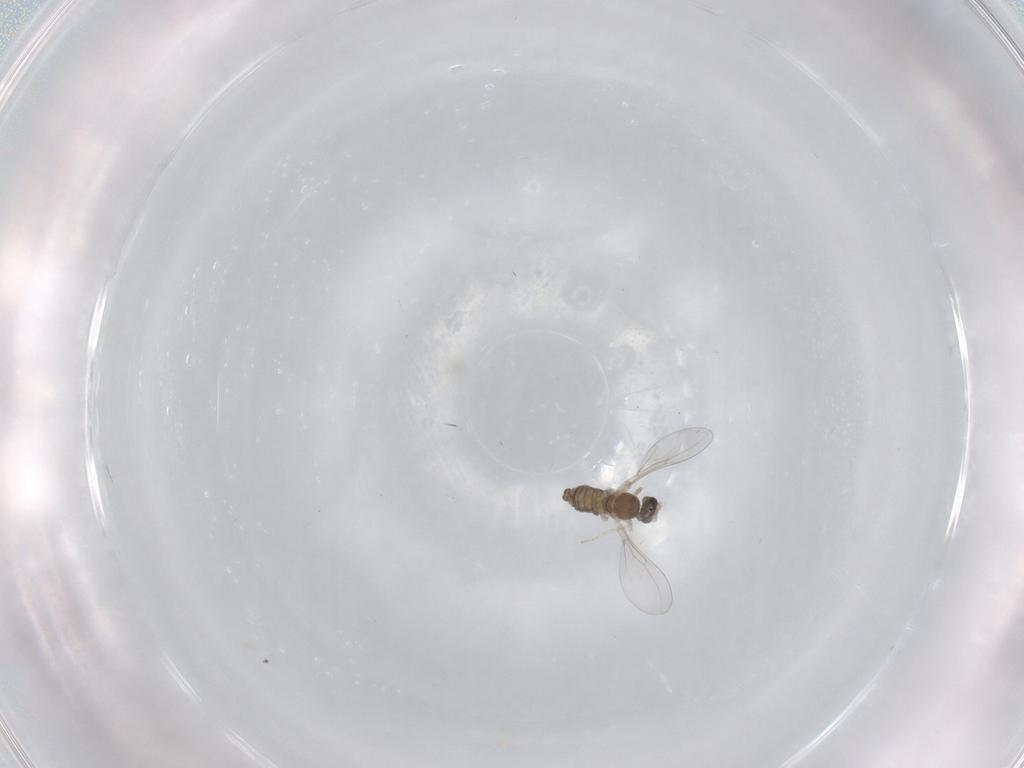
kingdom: Animalia
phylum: Arthropoda
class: Insecta
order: Diptera
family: Cecidomyiidae
